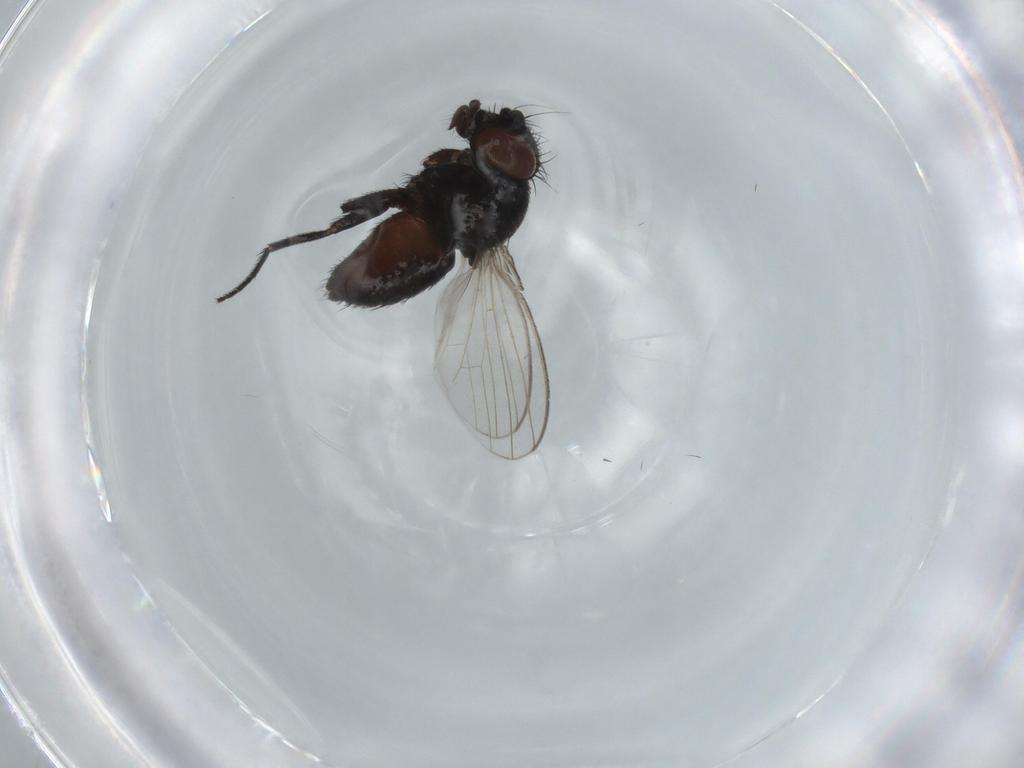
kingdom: Animalia
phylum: Arthropoda
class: Insecta
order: Diptera
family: Milichiidae
